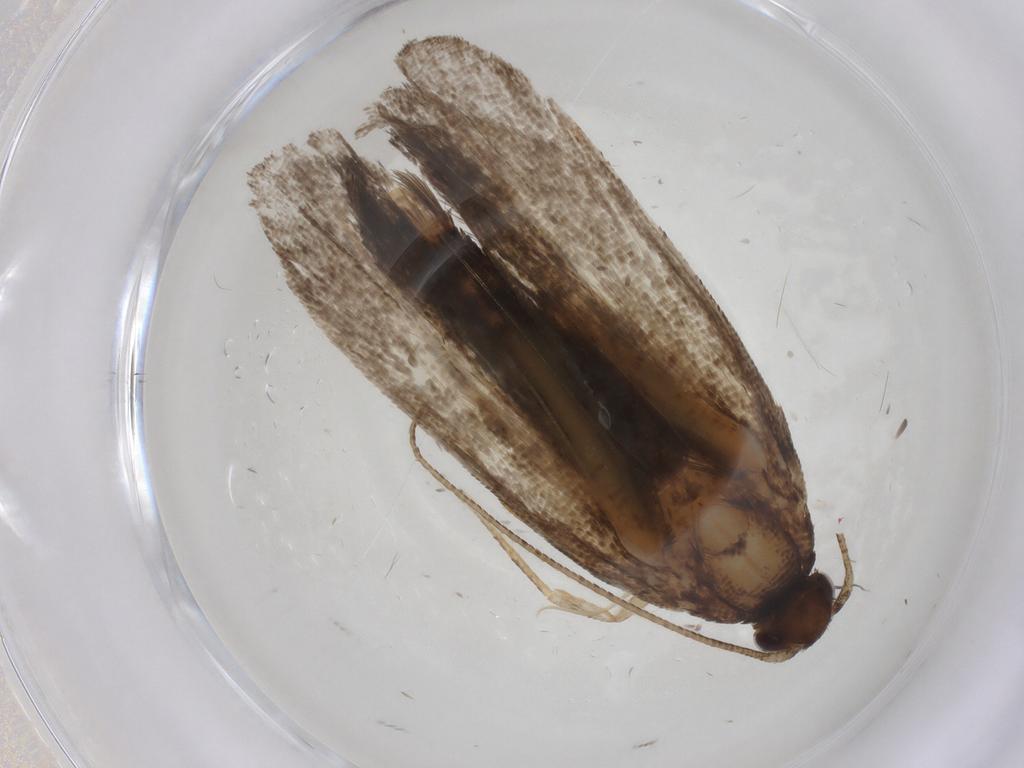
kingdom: Animalia
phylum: Arthropoda
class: Insecta
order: Lepidoptera
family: Gelechiidae
